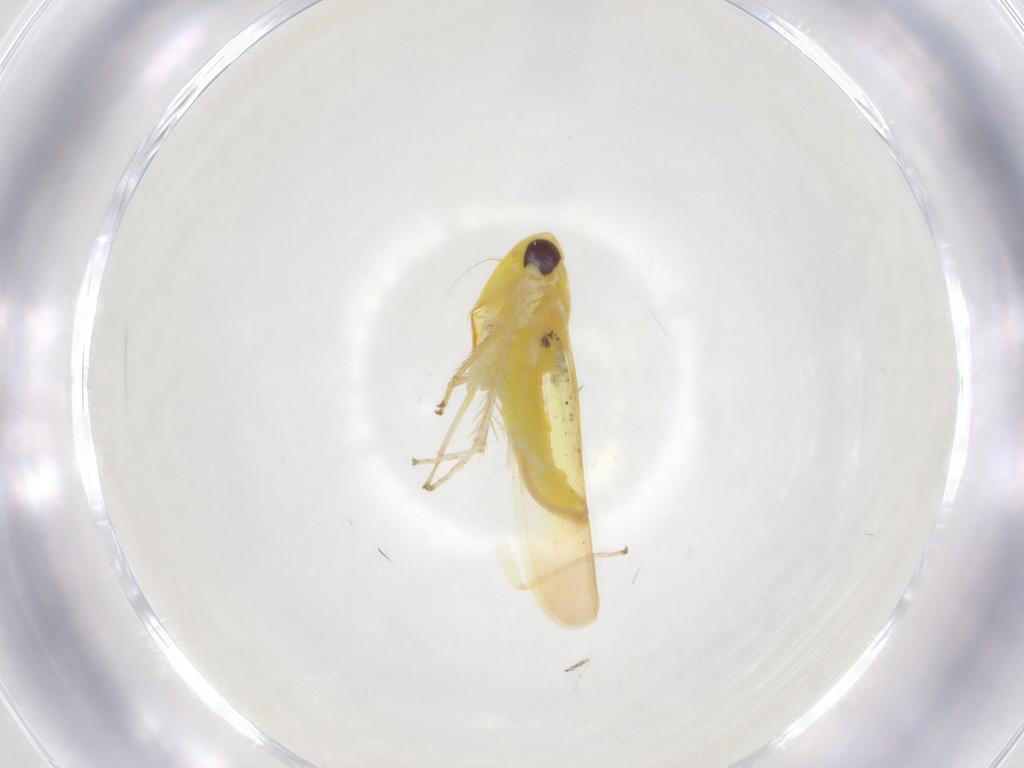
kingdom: Animalia
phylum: Arthropoda
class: Insecta
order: Hemiptera
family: Cicadellidae
